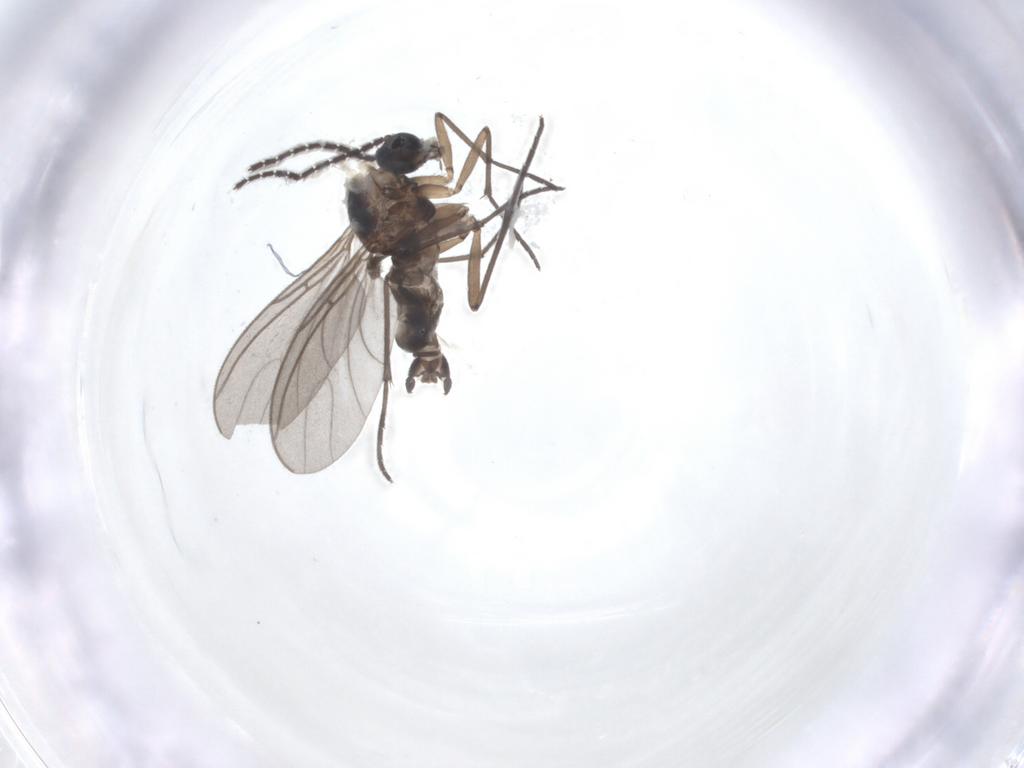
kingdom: Animalia
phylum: Arthropoda
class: Insecta
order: Diptera
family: Sciaridae
